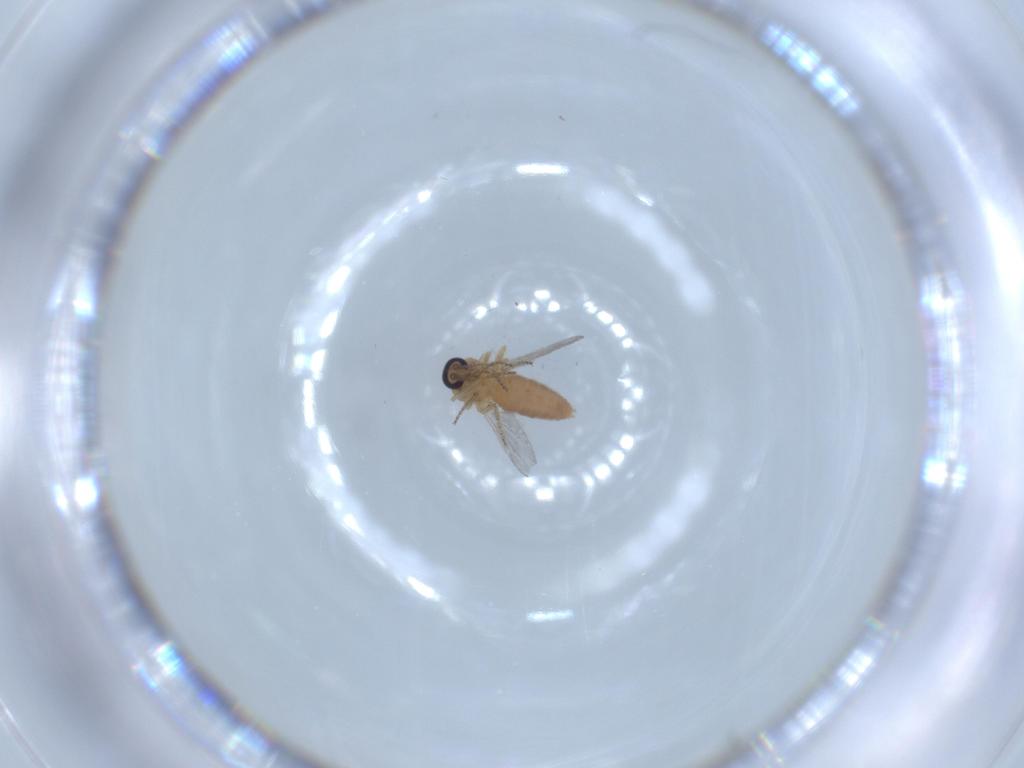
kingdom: Animalia
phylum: Arthropoda
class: Insecta
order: Diptera
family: Ceratopogonidae
